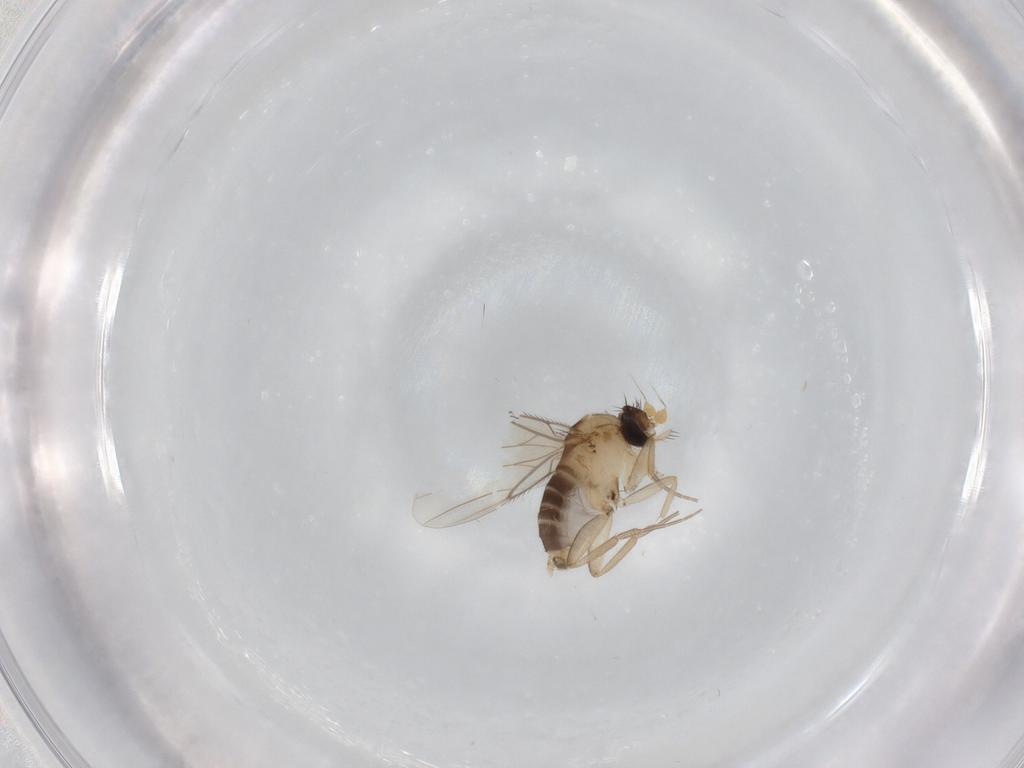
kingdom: Animalia
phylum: Arthropoda
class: Insecta
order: Diptera
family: Phoridae
